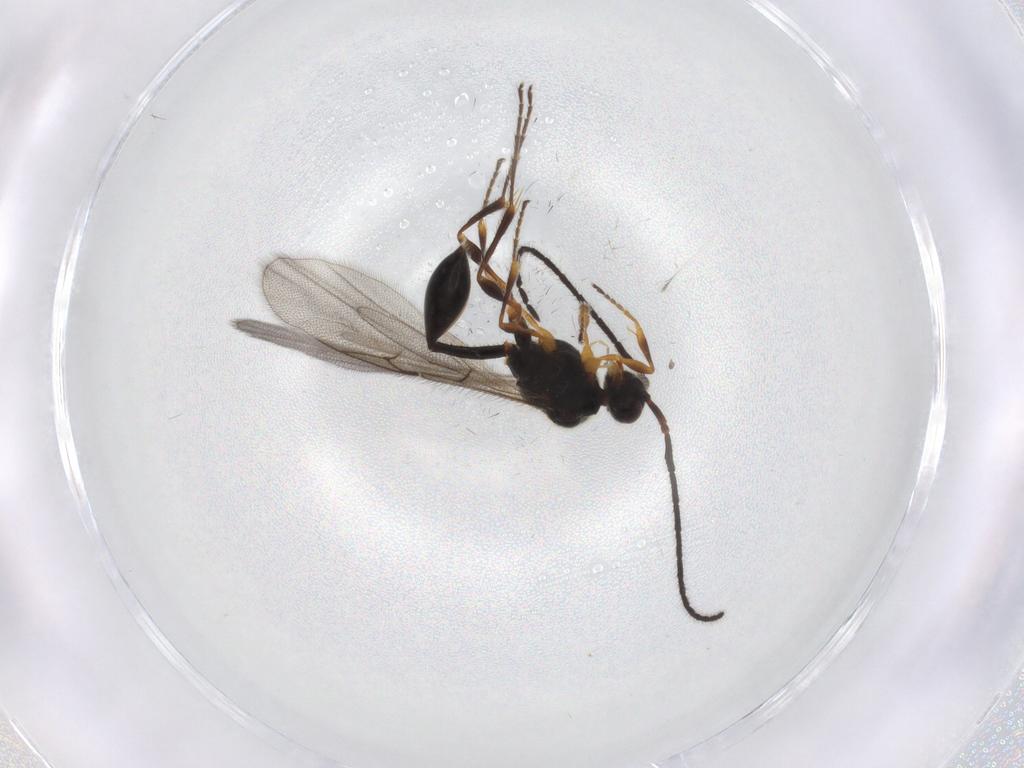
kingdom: Animalia
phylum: Arthropoda
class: Insecta
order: Hymenoptera
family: Diapriidae
